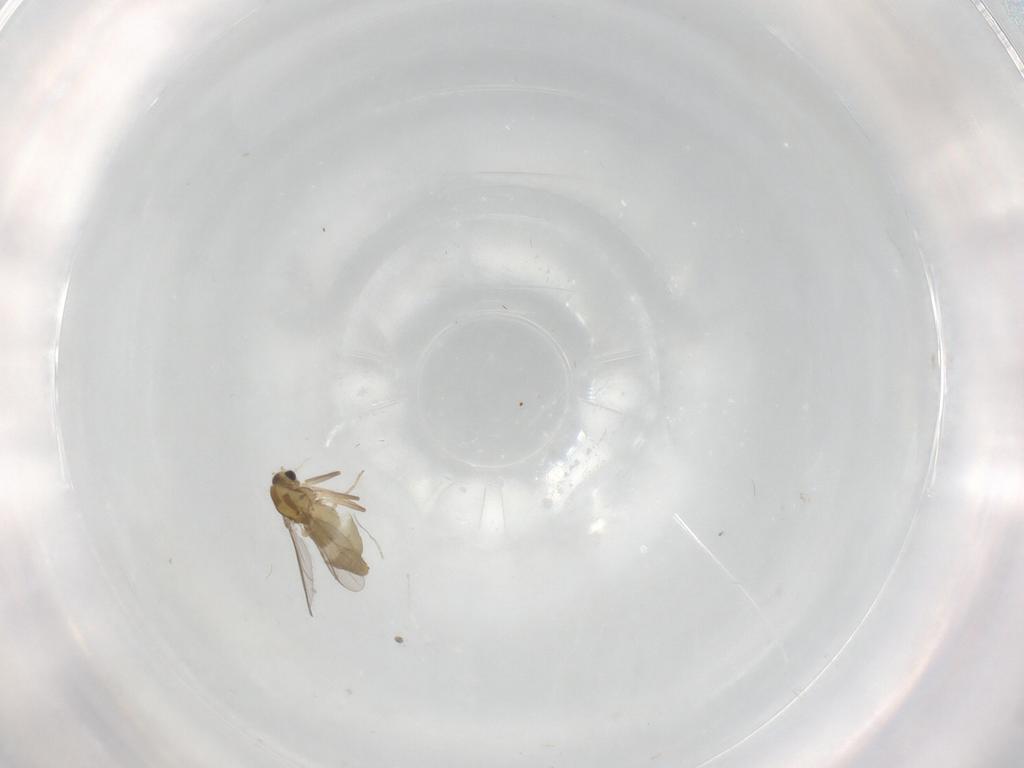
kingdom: Animalia
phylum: Arthropoda
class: Insecta
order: Diptera
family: Chironomidae
